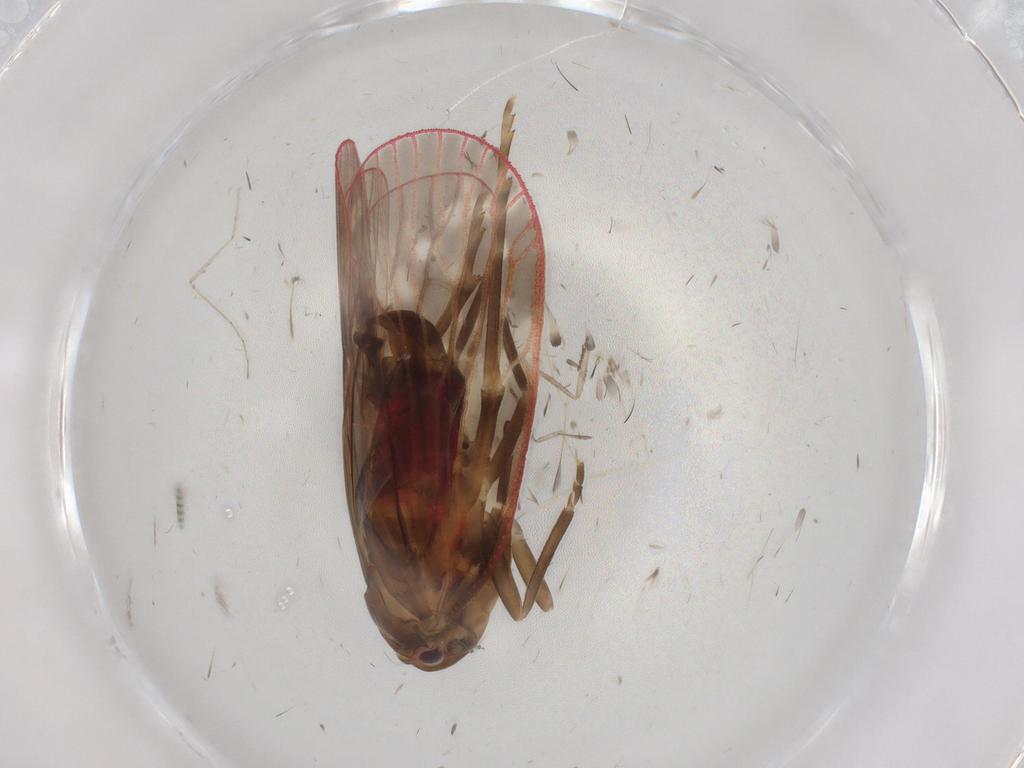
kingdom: Animalia
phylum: Arthropoda
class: Insecta
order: Hemiptera
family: Achilidae
